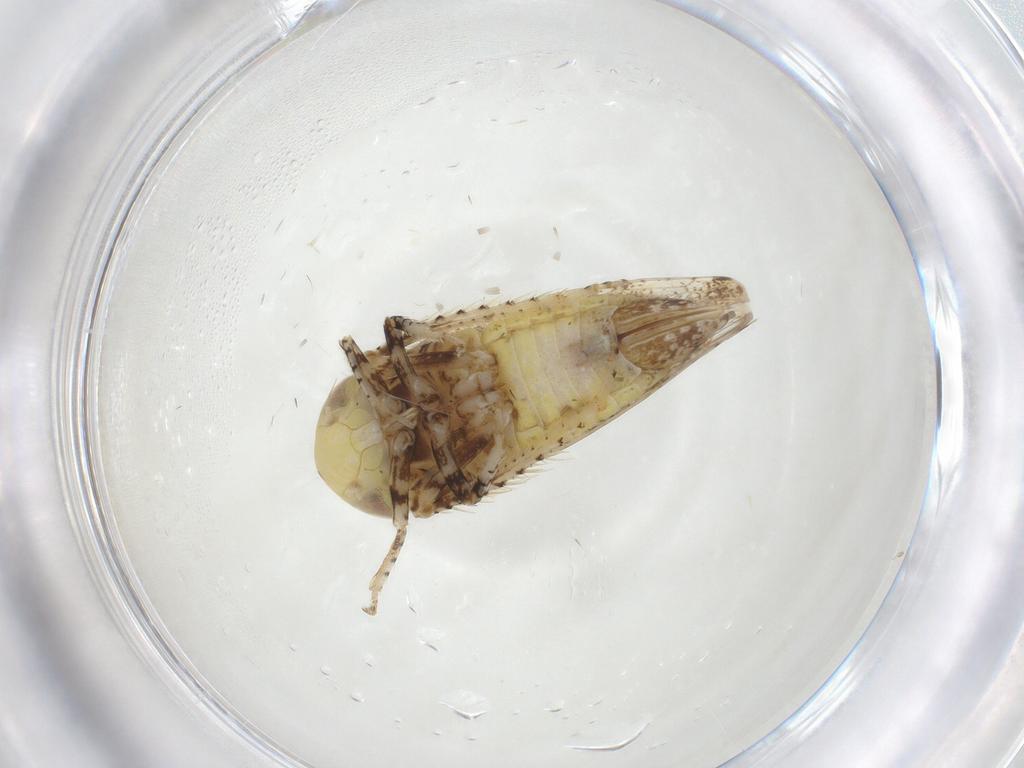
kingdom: Animalia
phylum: Arthropoda
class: Insecta
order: Hemiptera
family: Cicadellidae
